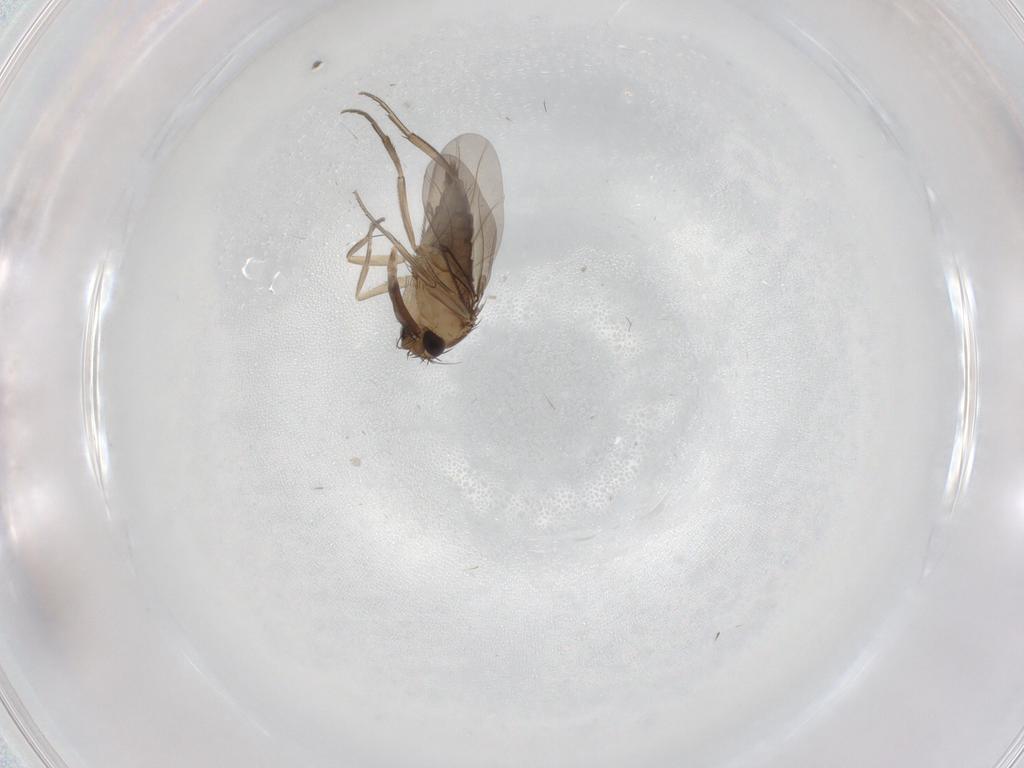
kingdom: Animalia
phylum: Arthropoda
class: Insecta
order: Diptera
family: Phoridae
